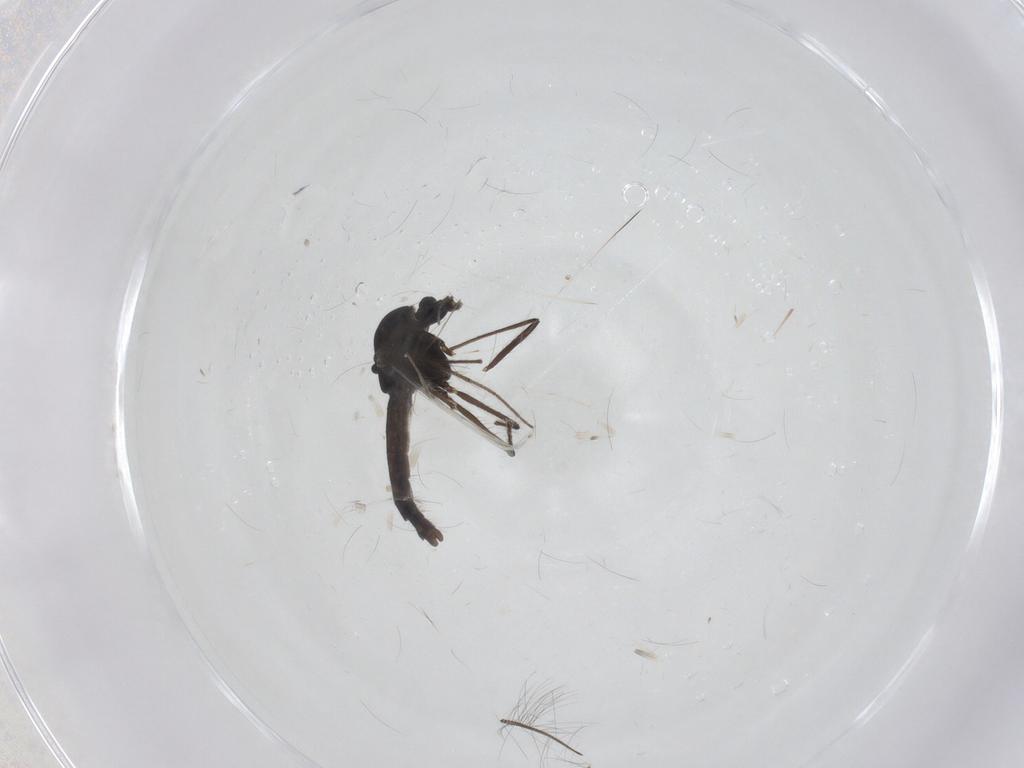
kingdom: Animalia
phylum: Arthropoda
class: Insecta
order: Diptera
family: Chironomidae
